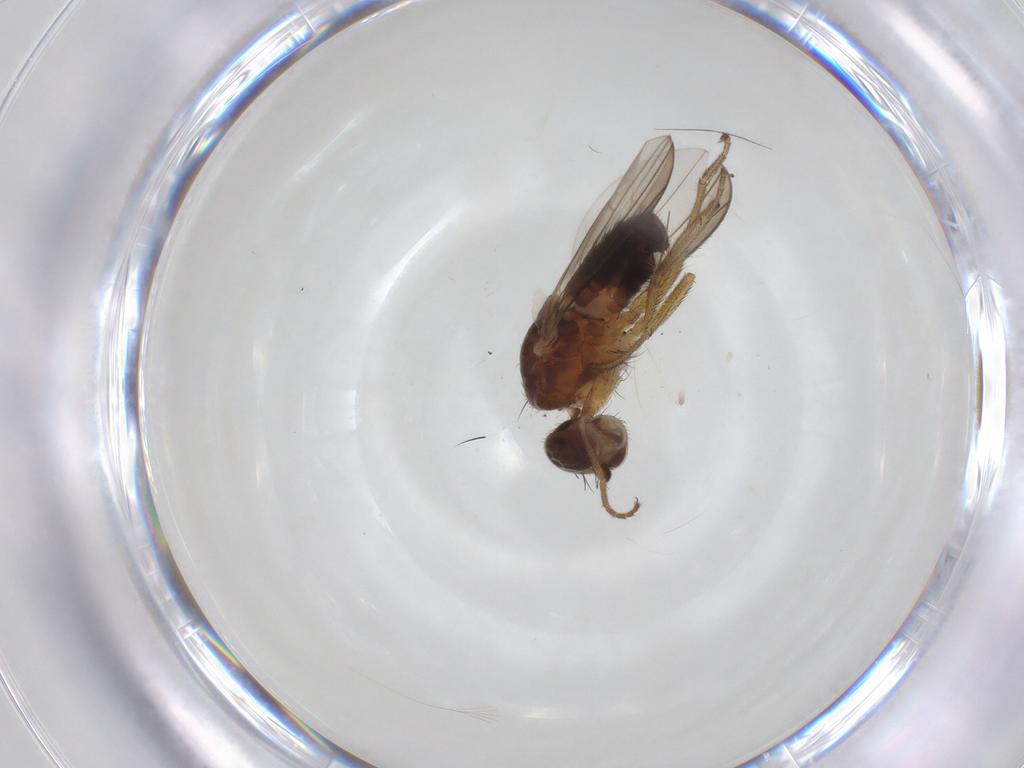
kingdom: Animalia
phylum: Arthropoda
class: Insecta
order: Diptera
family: Heleomyzidae
